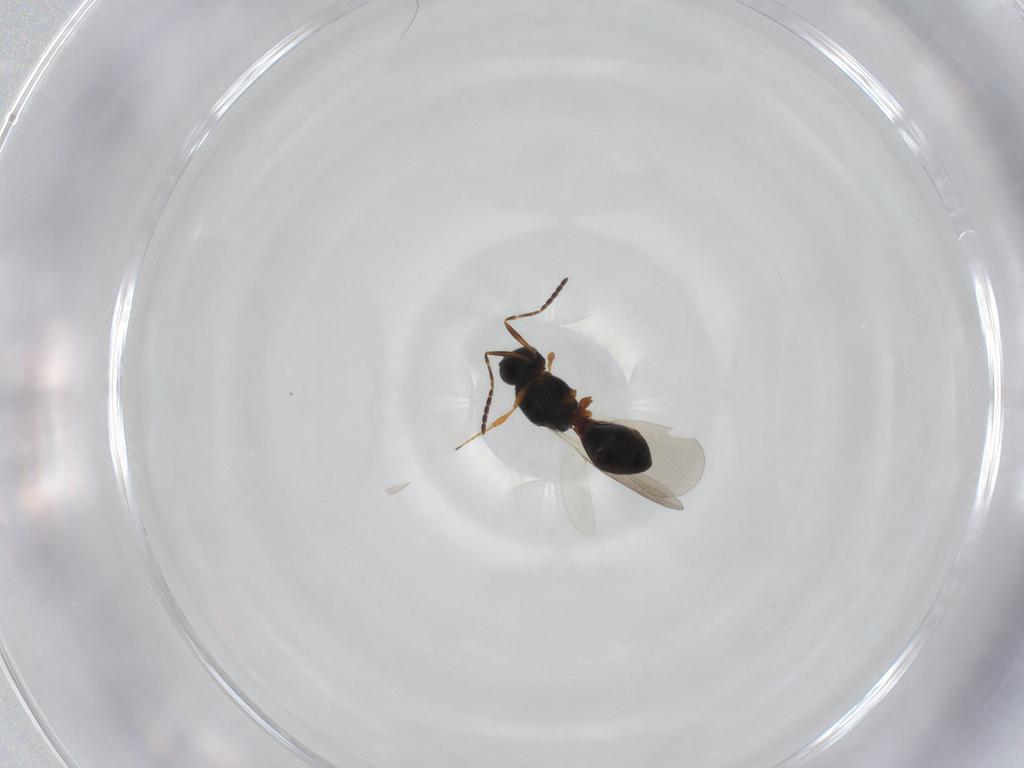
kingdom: Animalia
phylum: Arthropoda
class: Insecta
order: Hymenoptera
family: Platygastridae
